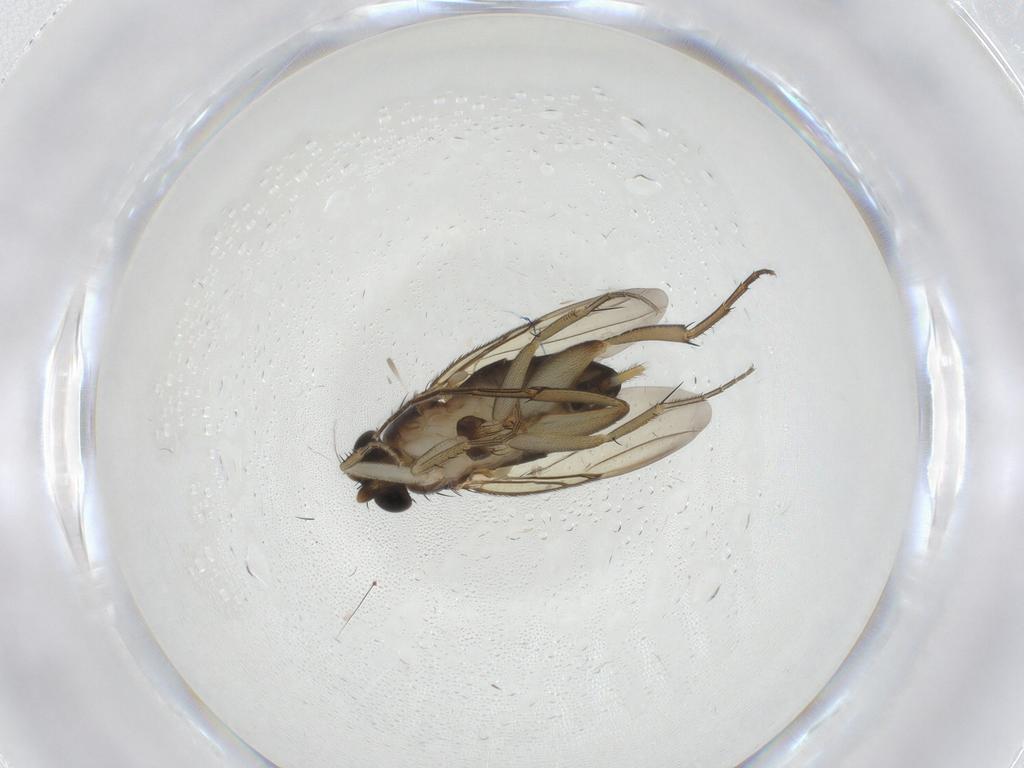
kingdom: Animalia
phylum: Arthropoda
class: Insecta
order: Diptera
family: Phoridae
